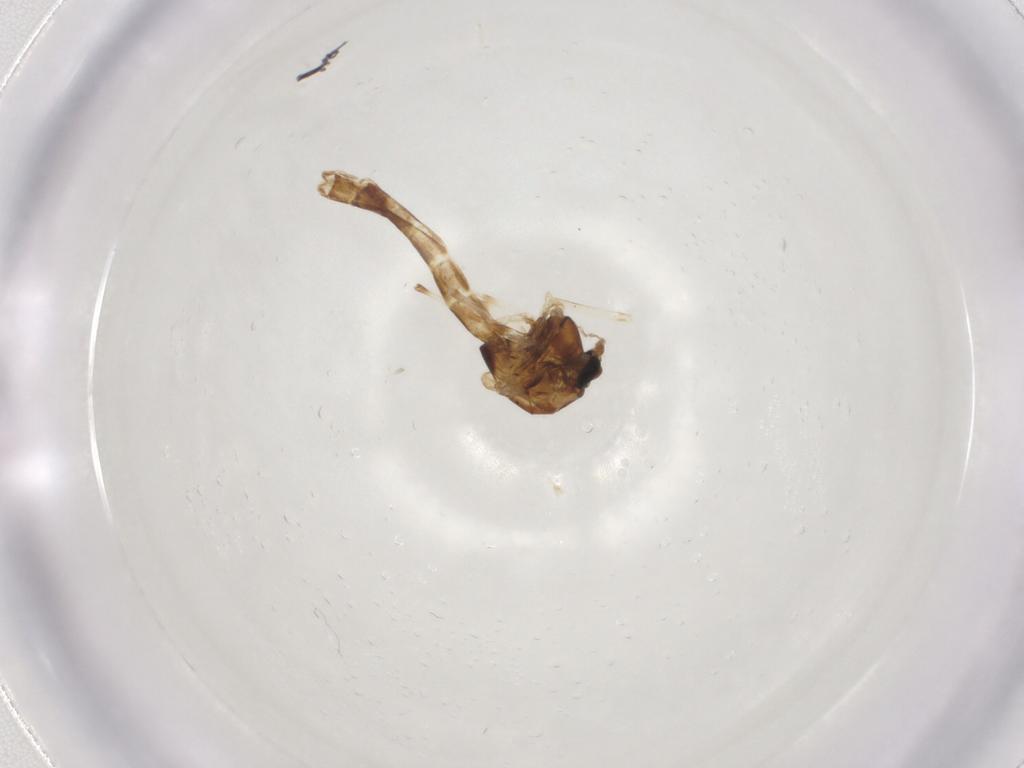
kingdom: Animalia
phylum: Arthropoda
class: Insecta
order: Diptera
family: Chironomidae
